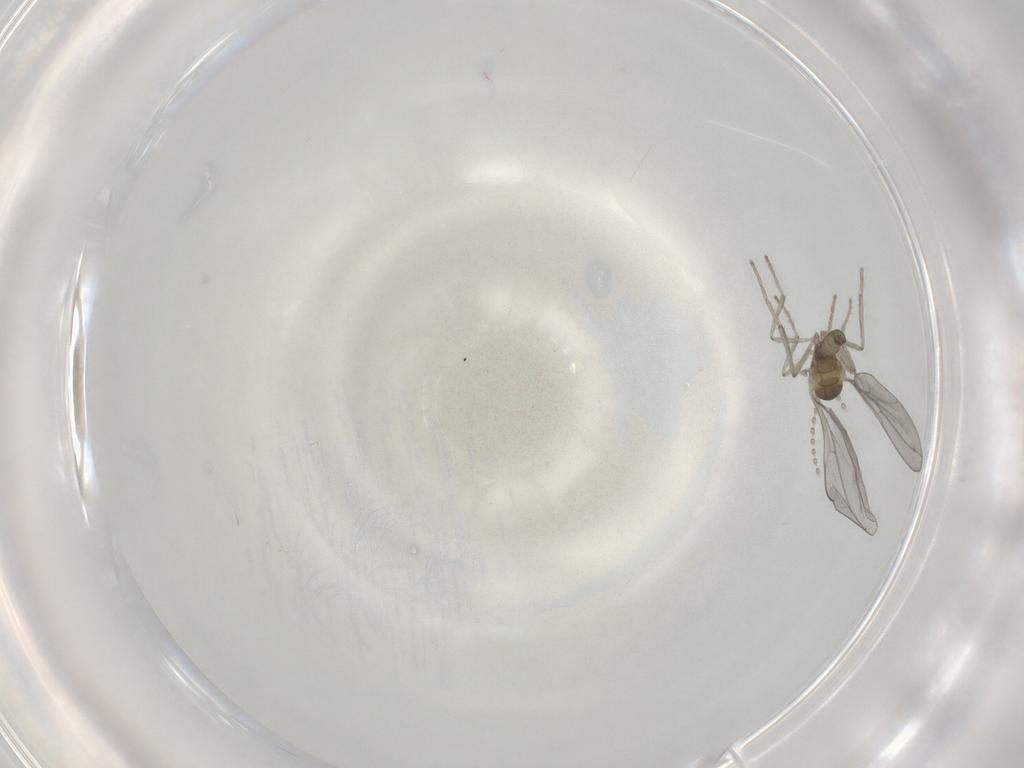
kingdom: Animalia
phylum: Arthropoda
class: Insecta
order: Diptera
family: Cecidomyiidae
